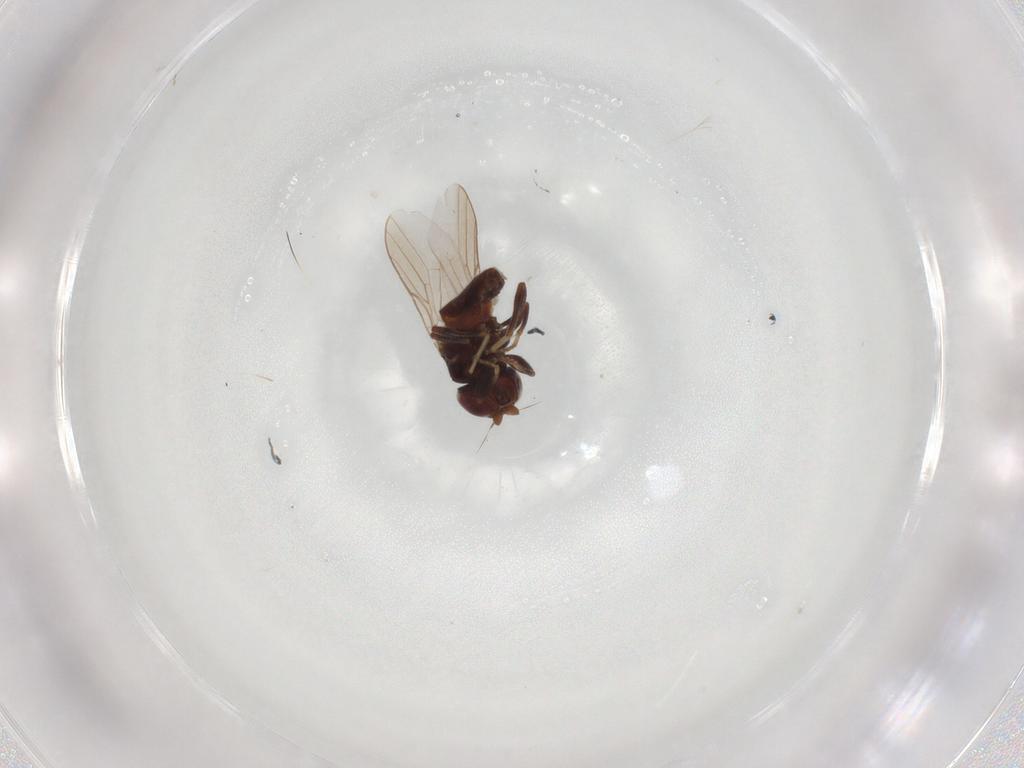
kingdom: Animalia
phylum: Arthropoda
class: Insecta
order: Diptera
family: Chloropidae
